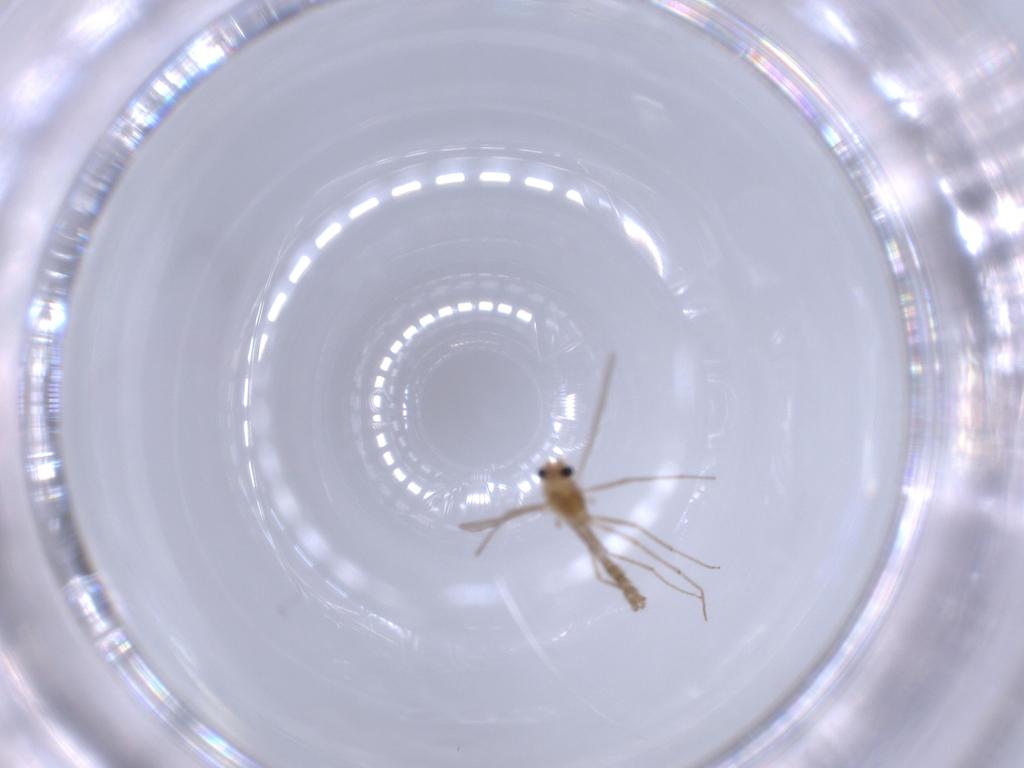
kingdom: Animalia
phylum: Arthropoda
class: Insecta
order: Diptera
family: Chironomidae
